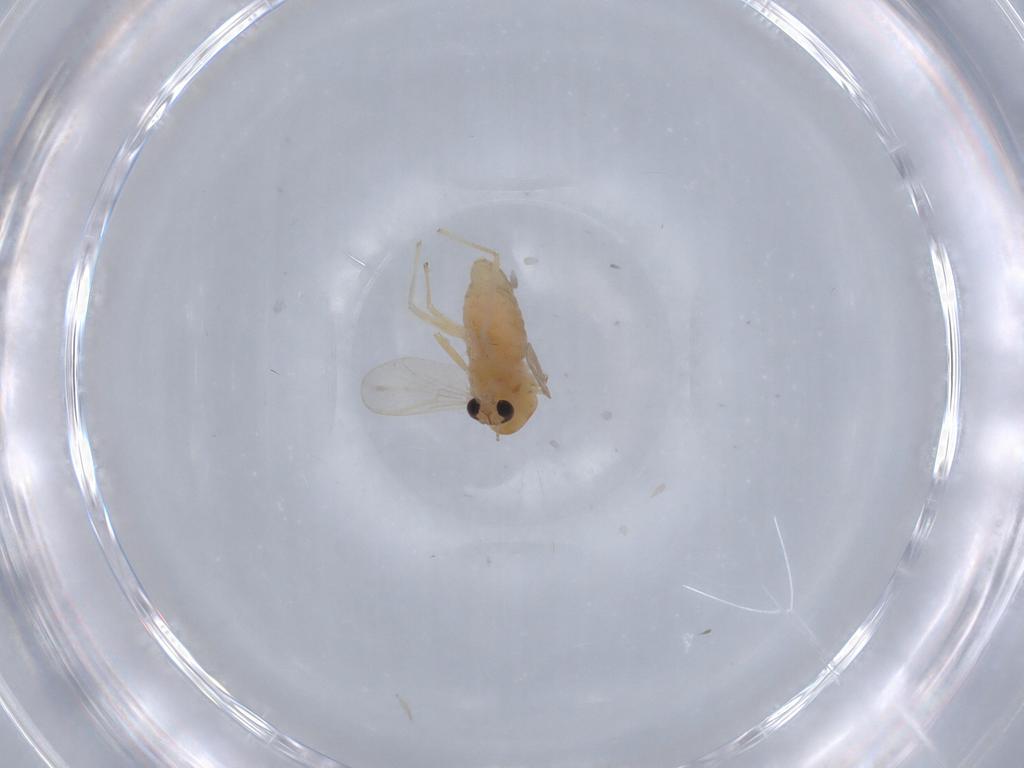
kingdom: Animalia
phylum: Arthropoda
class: Insecta
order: Diptera
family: Chironomidae
